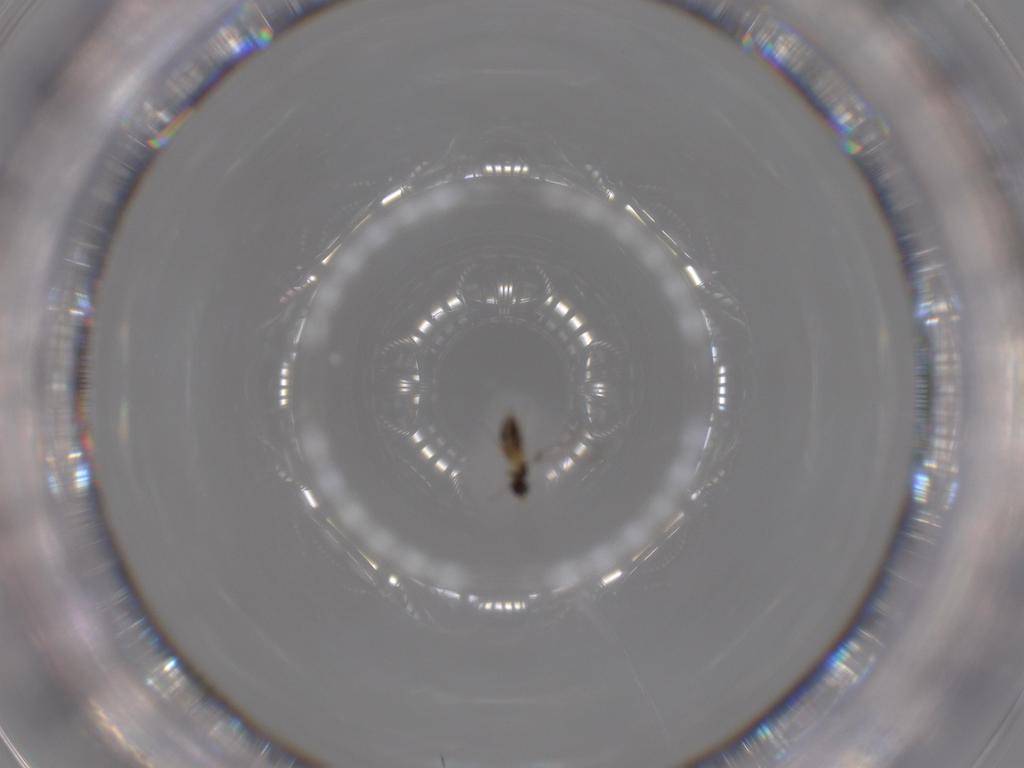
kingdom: Animalia
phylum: Arthropoda
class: Insecta
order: Hymenoptera
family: Mymaridae
